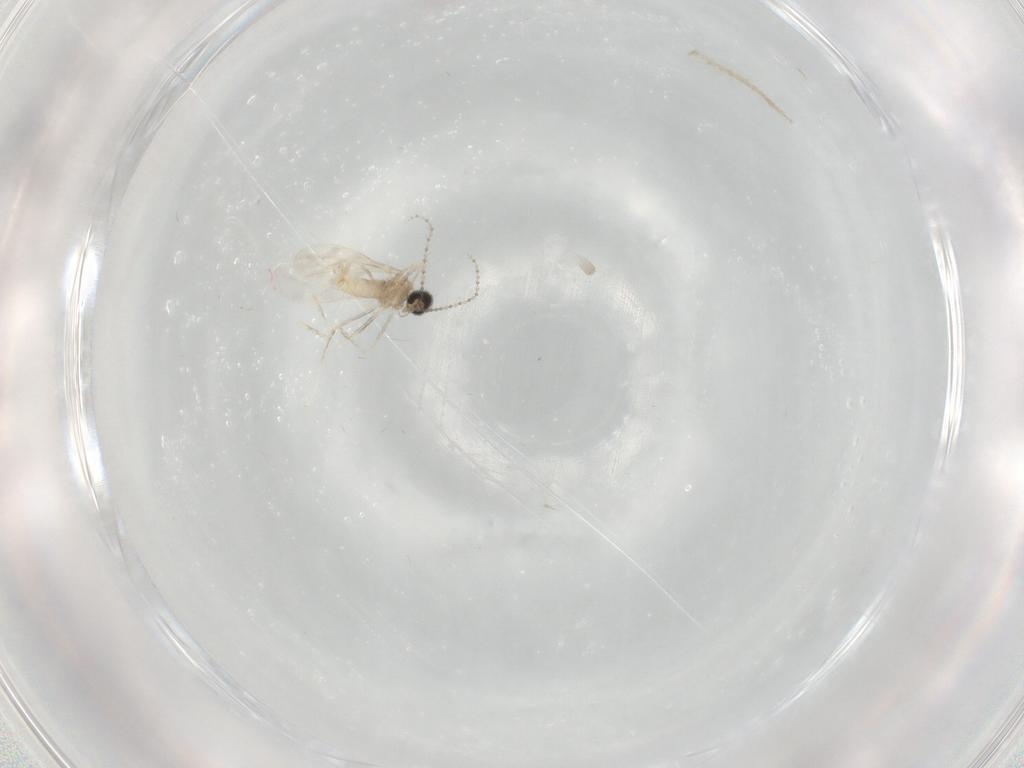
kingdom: Animalia
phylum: Arthropoda
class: Insecta
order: Diptera
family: Cecidomyiidae
